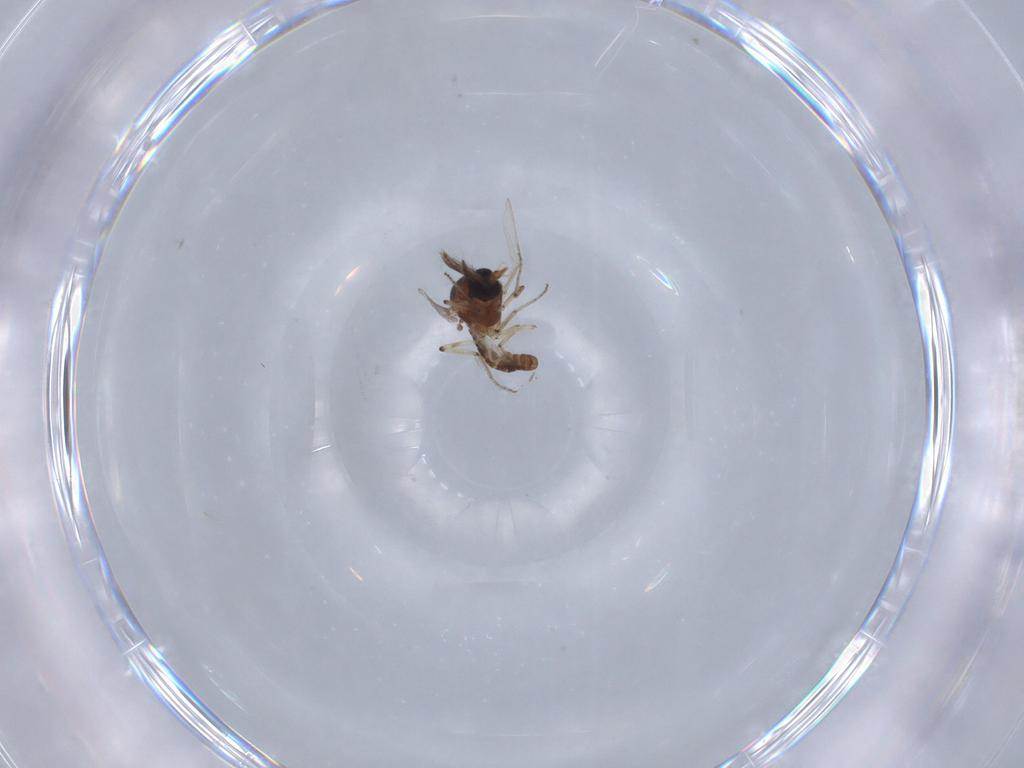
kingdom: Animalia
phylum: Arthropoda
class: Insecta
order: Diptera
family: Ceratopogonidae
